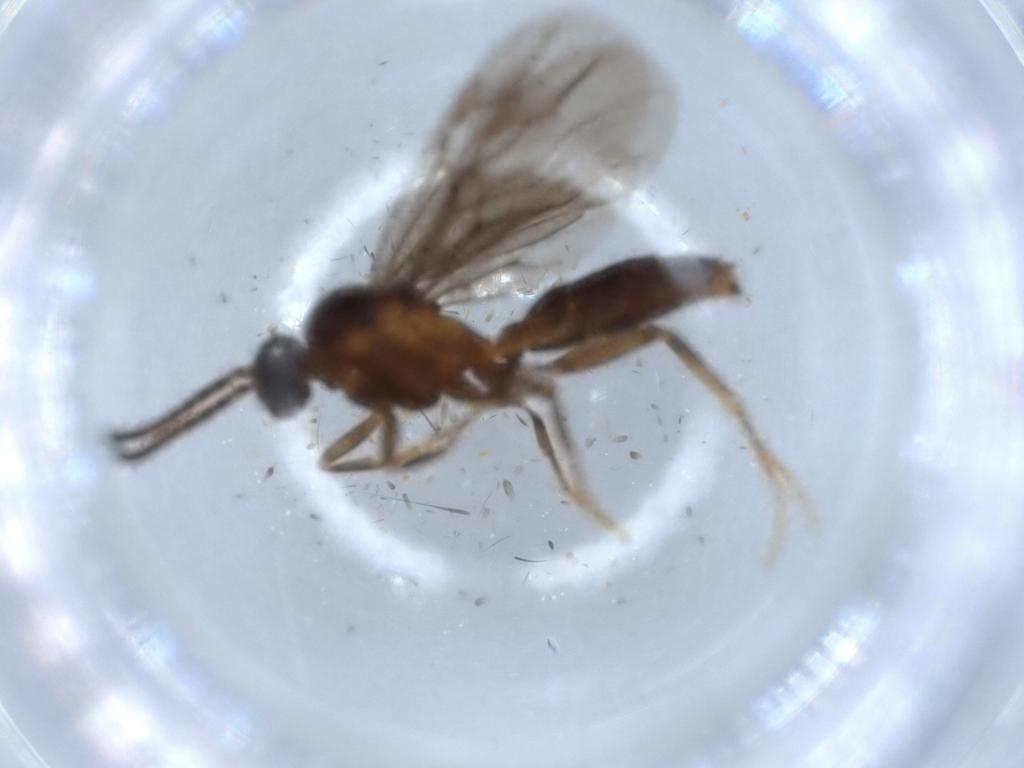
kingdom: Animalia
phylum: Arthropoda
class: Insecta
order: Hymenoptera
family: Formicidae
